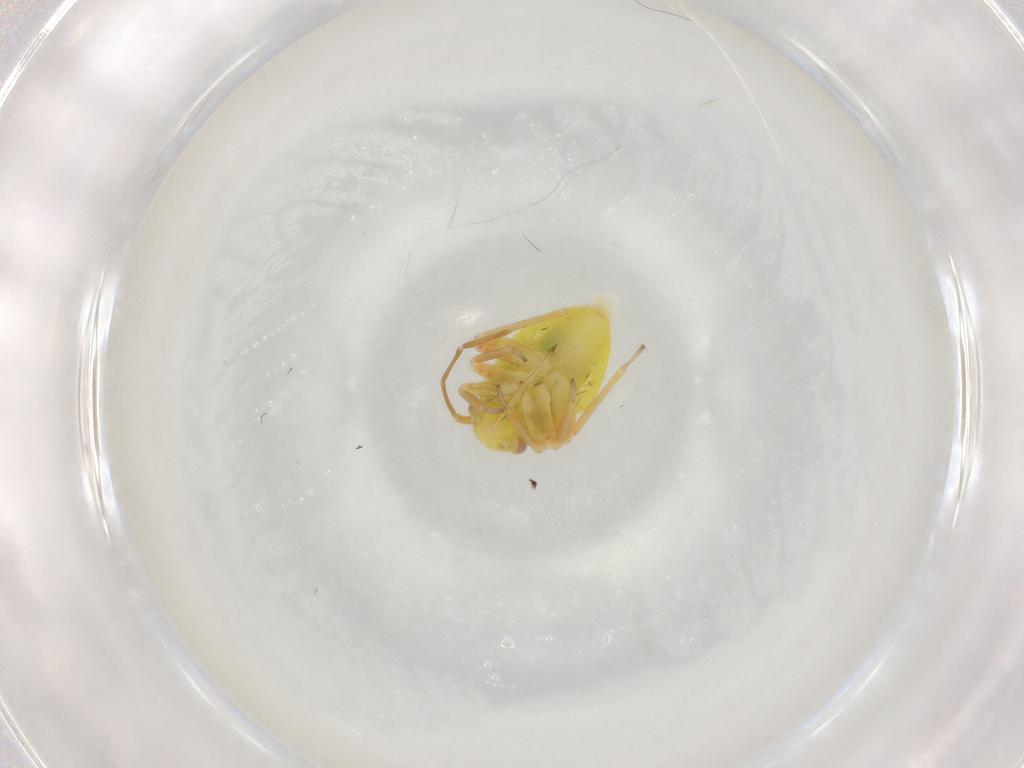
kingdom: Animalia
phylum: Arthropoda
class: Insecta
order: Hemiptera
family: Miridae
